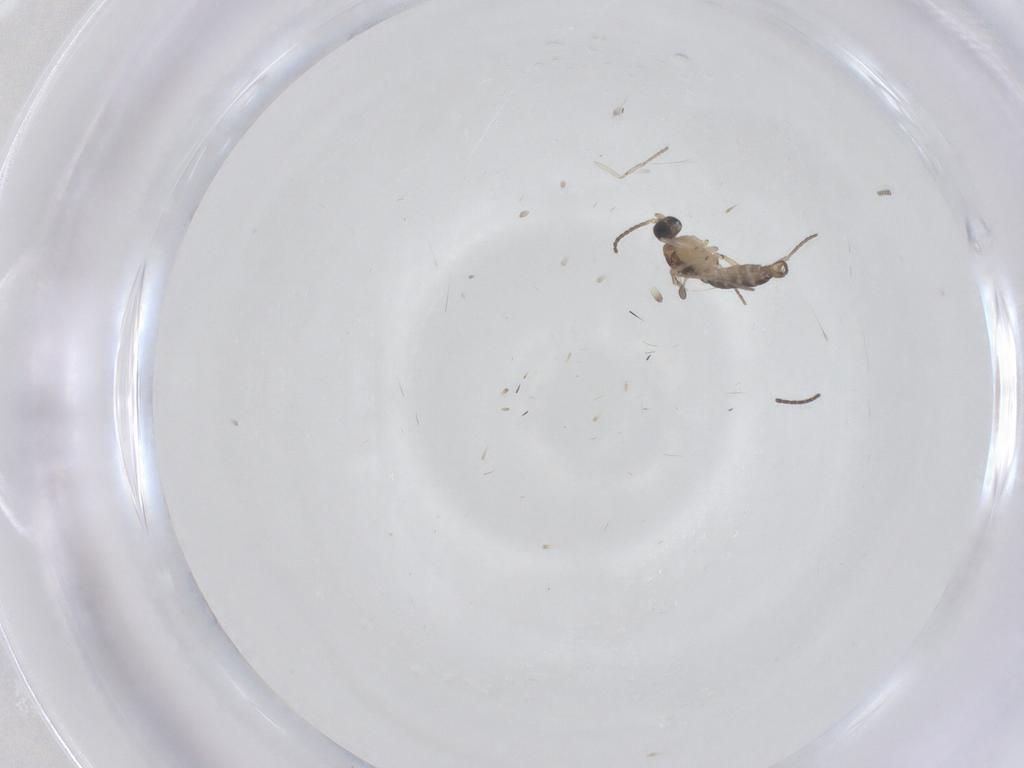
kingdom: Animalia
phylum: Arthropoda
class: Insecta
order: Diptera
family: Sciaridae
